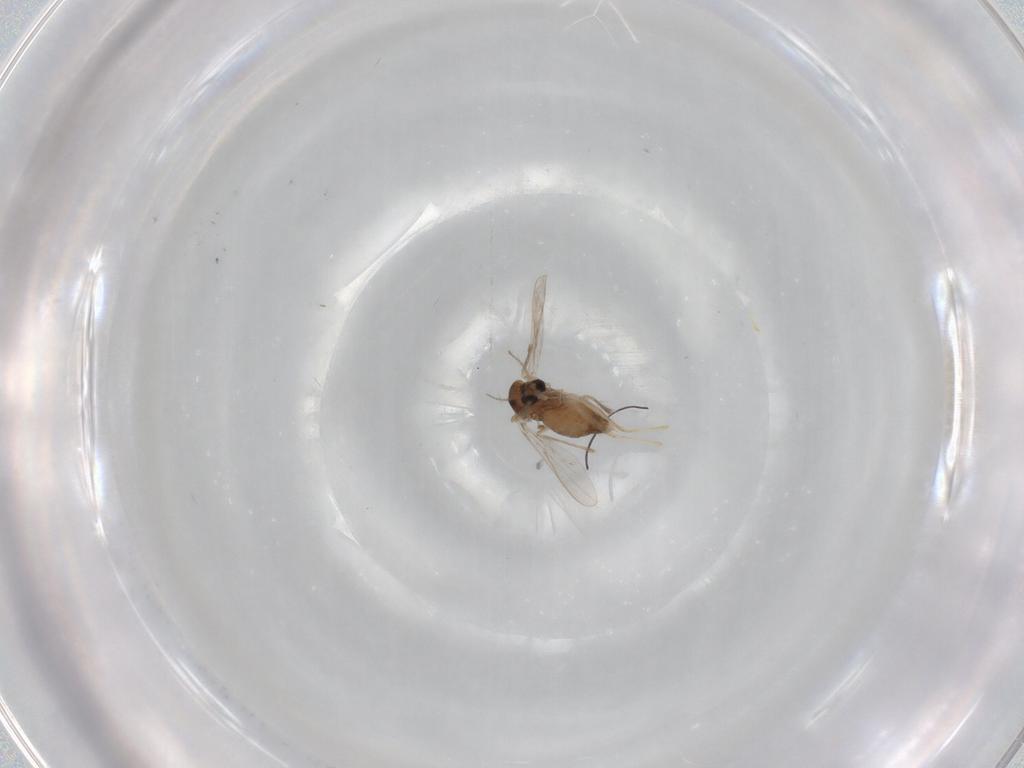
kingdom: Animalia
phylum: Arthropoda
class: Insecta
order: Diptera
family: Chironomidae
